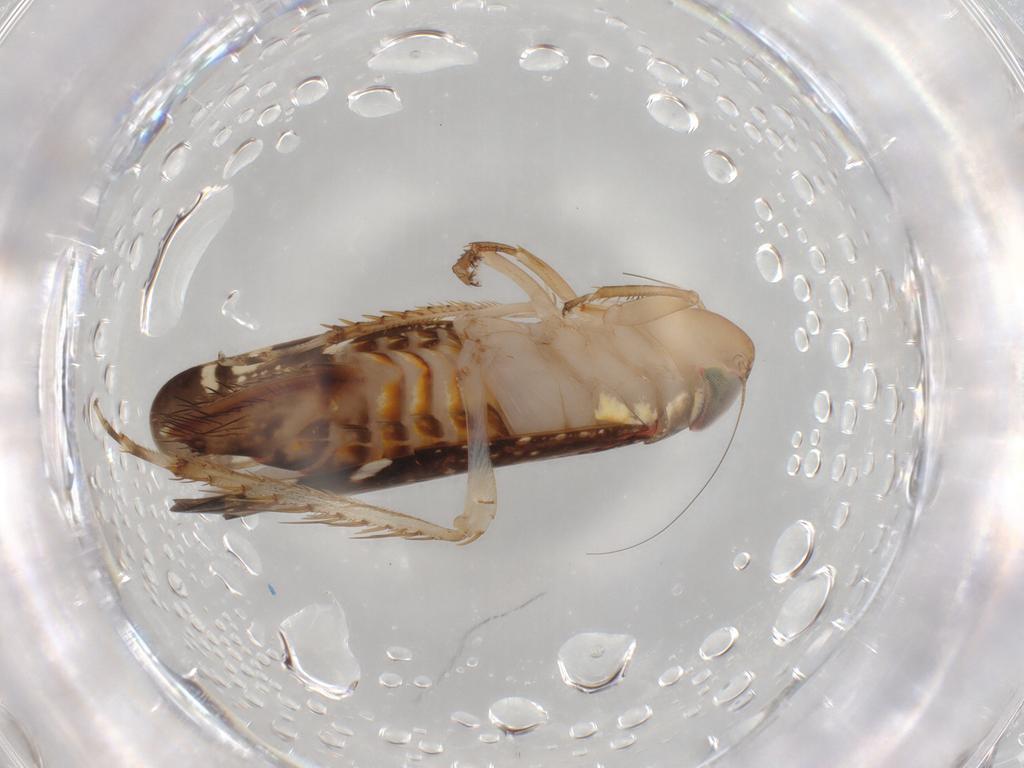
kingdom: Animalia
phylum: Arthropoda
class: Insecta
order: Hemiptera
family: Cicadellidae
